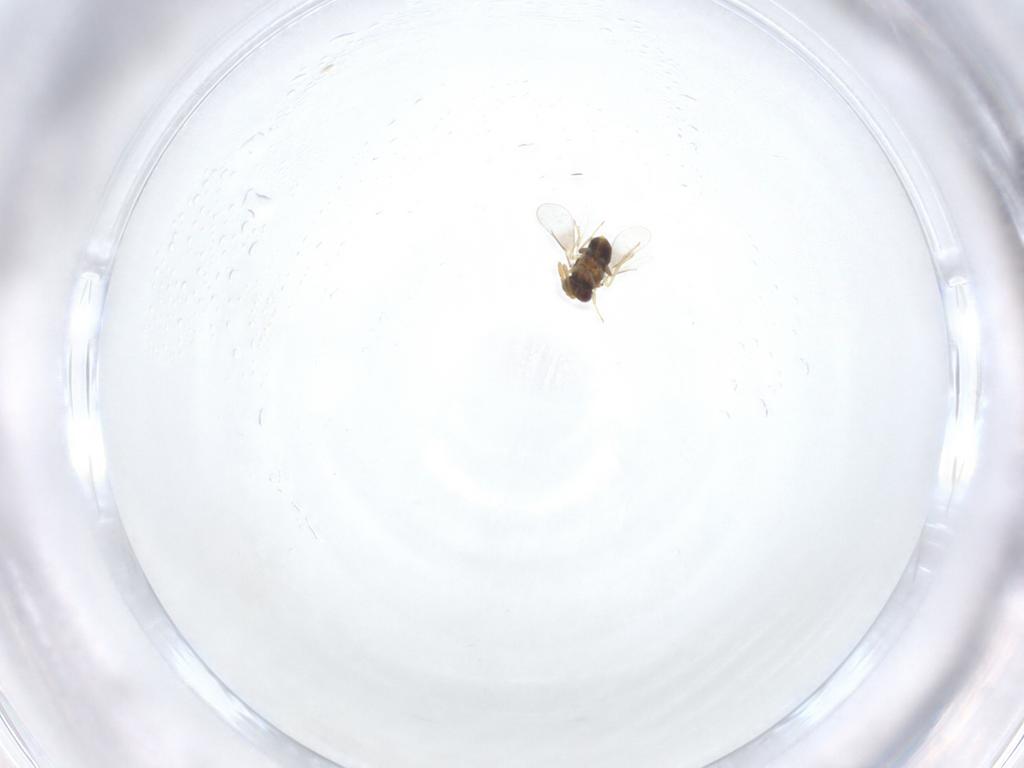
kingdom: Animalia
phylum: Arthropoda
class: Insecta
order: Hymenoptera
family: Aphelinidae
